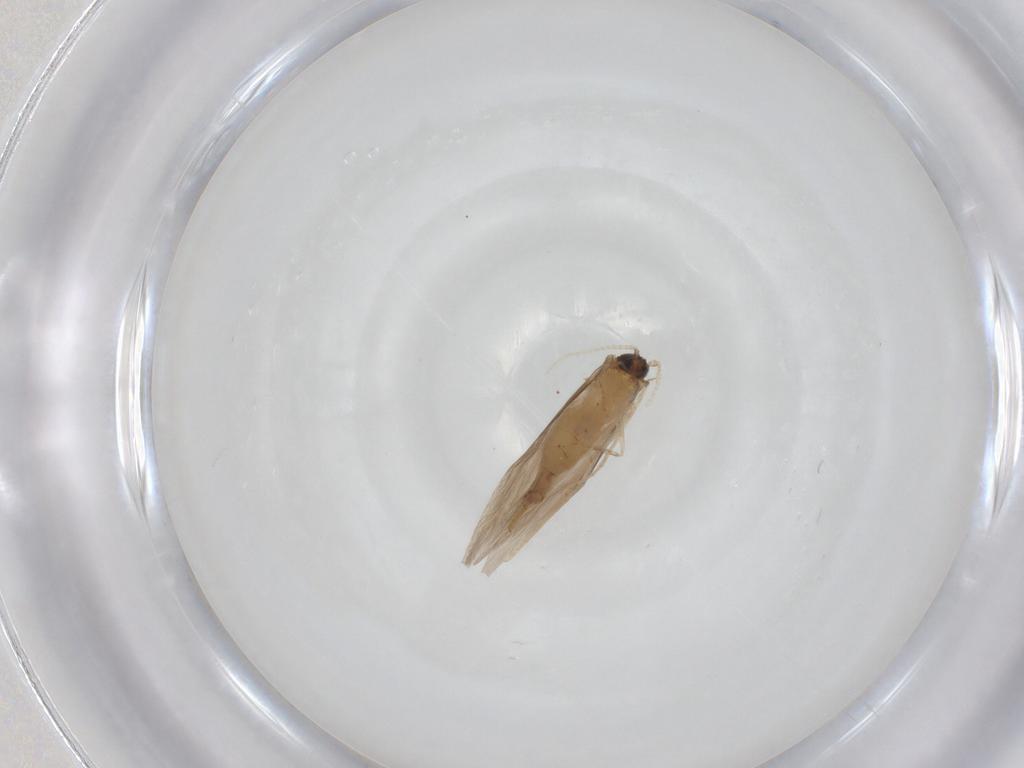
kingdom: Animalia
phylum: Arthropoda
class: Insecta
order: Trichoptera
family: Hydroptilidae
